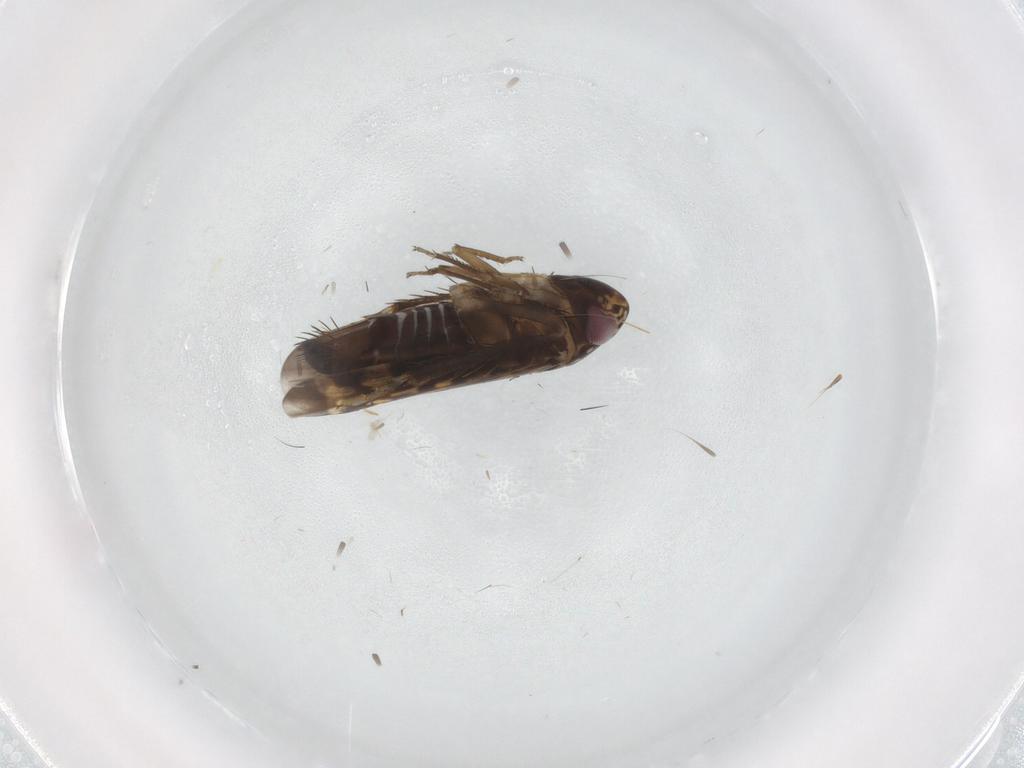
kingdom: Animalia
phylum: Arthropoda
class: Insecta
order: Hemiptera
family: Cicadellidae
